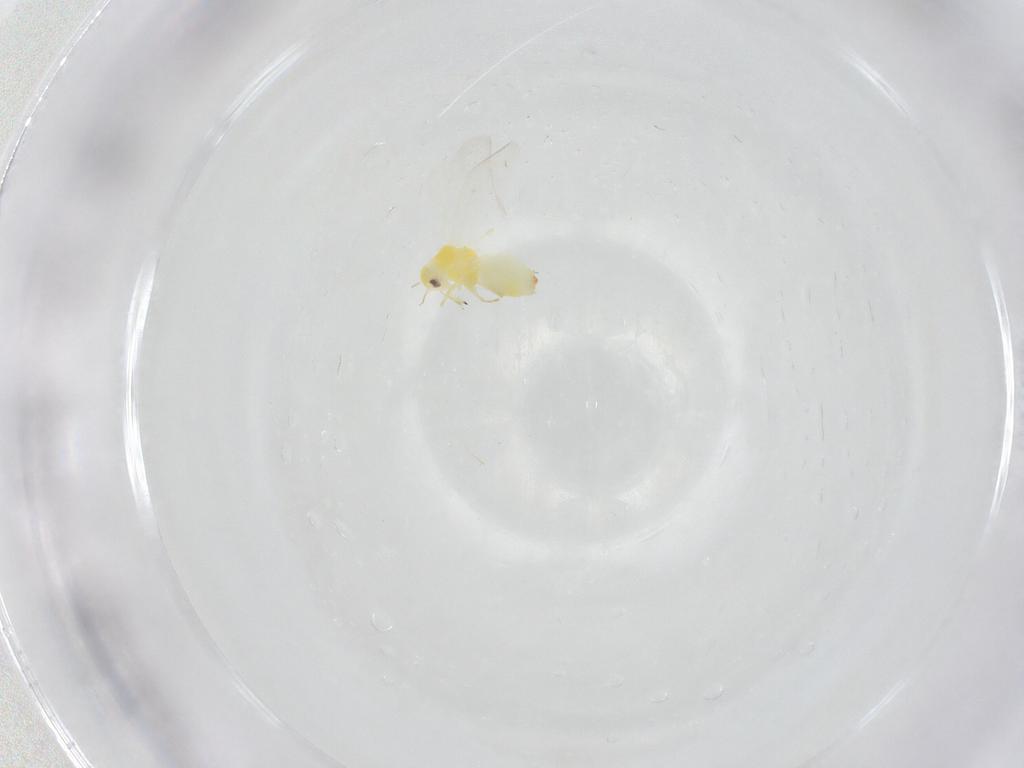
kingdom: Animalia
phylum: Arthropoda
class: Insecta
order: Hemiptera
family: Aleyrodidae
